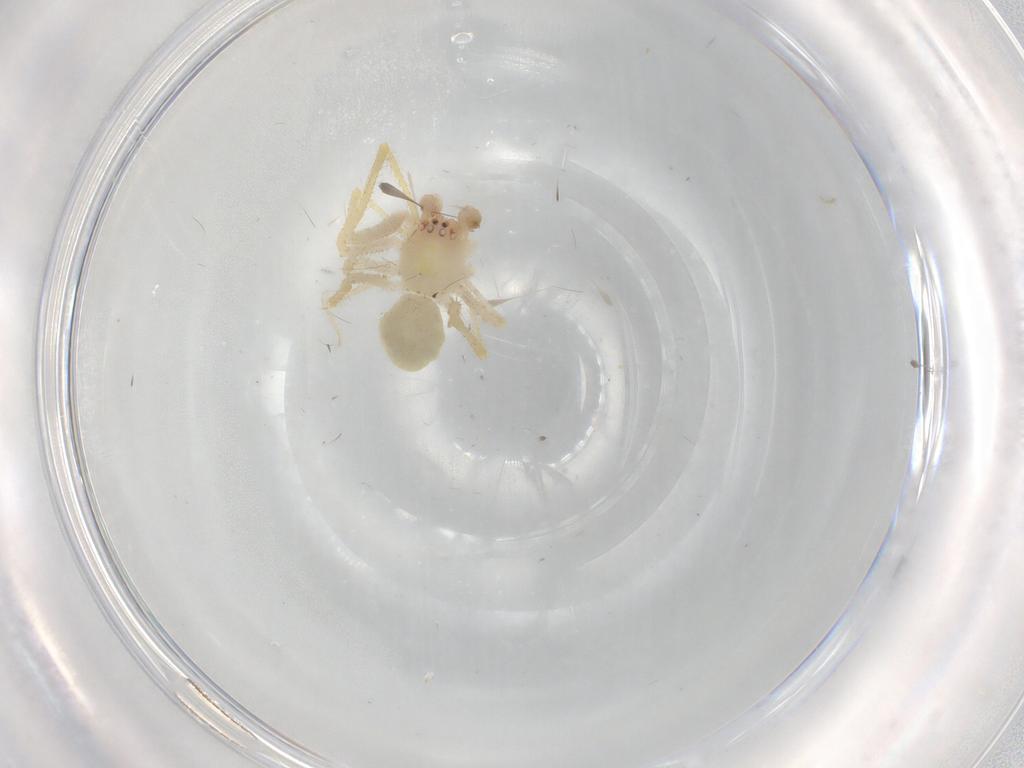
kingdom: Animalia
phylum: Arthropoda
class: Arachnida
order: Araneae
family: Theridiidae
